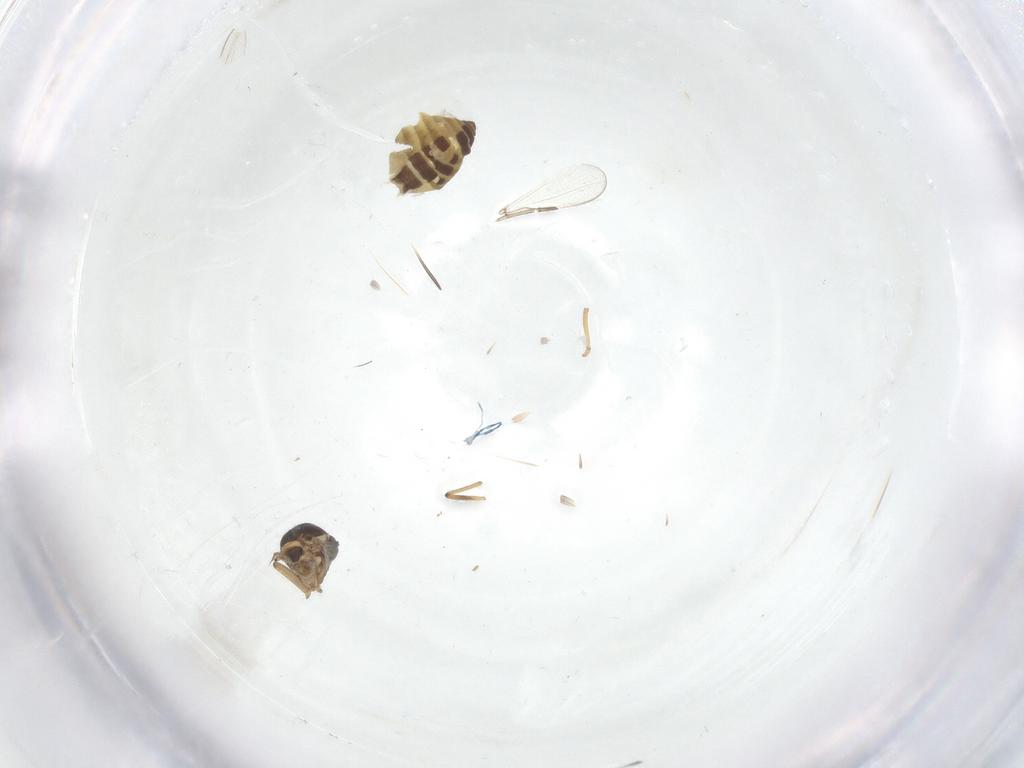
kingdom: Animalia
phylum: Arthropoda
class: Insecta
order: Diptera
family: Ceratopogonidae
